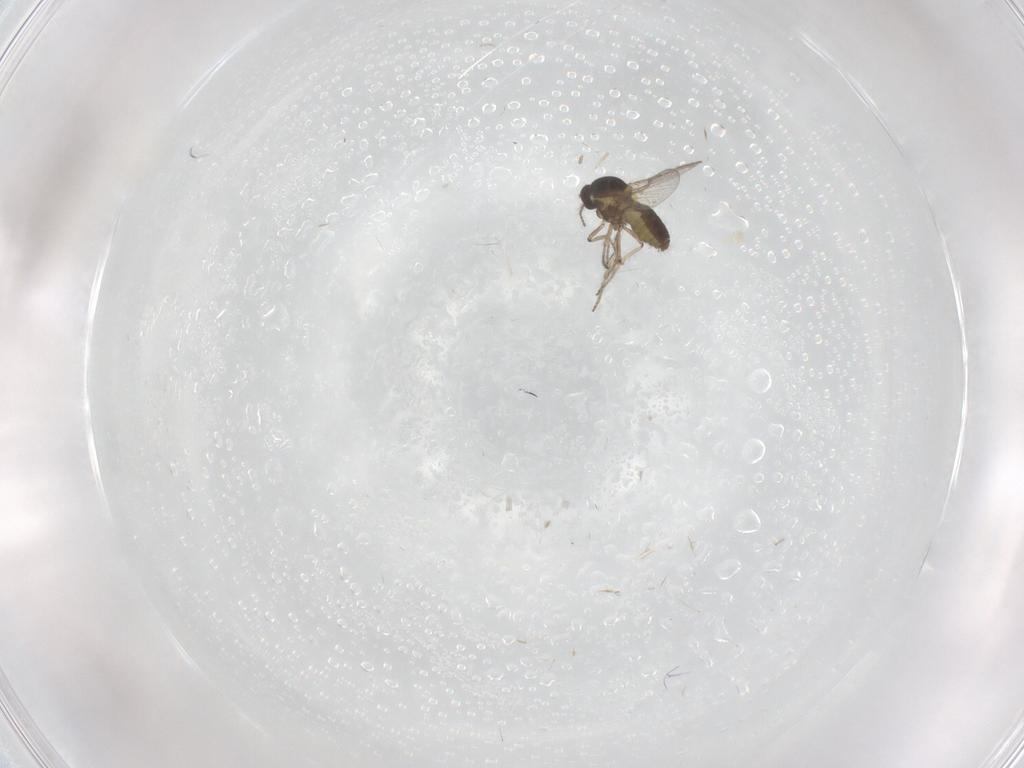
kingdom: Animalia
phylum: Arthropoda
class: Insecta
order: Diptera
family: Ceratopogonidae
